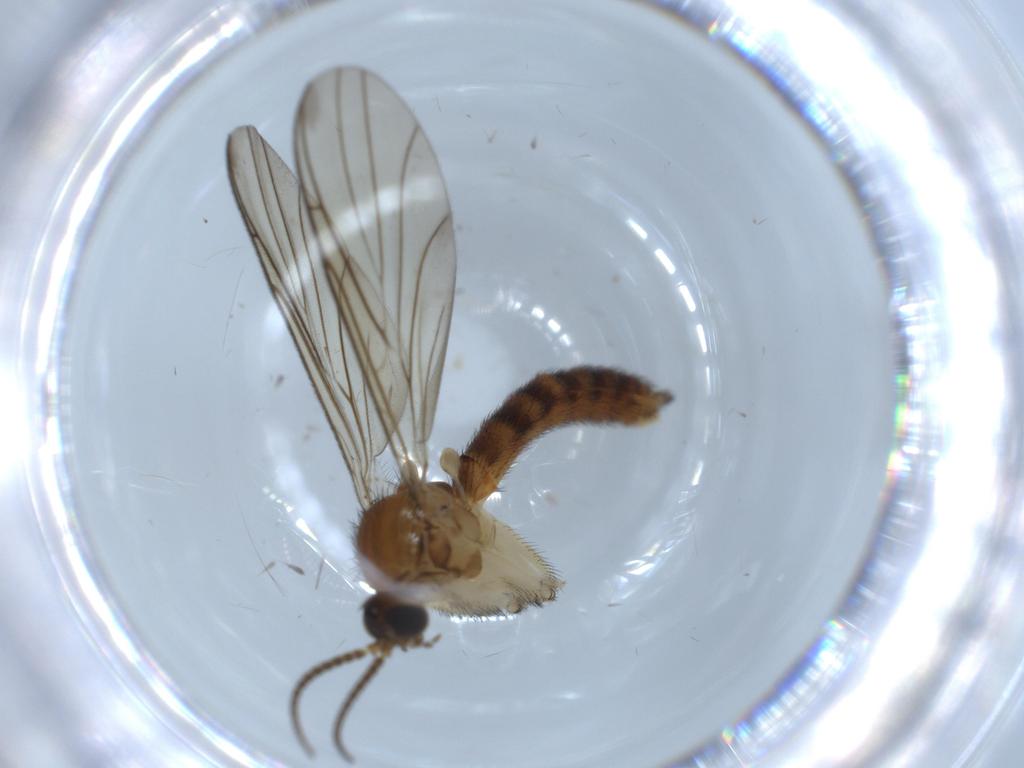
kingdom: Animalia
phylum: Arthropoda
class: Insecta
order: Diptera
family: Keroplatidae
